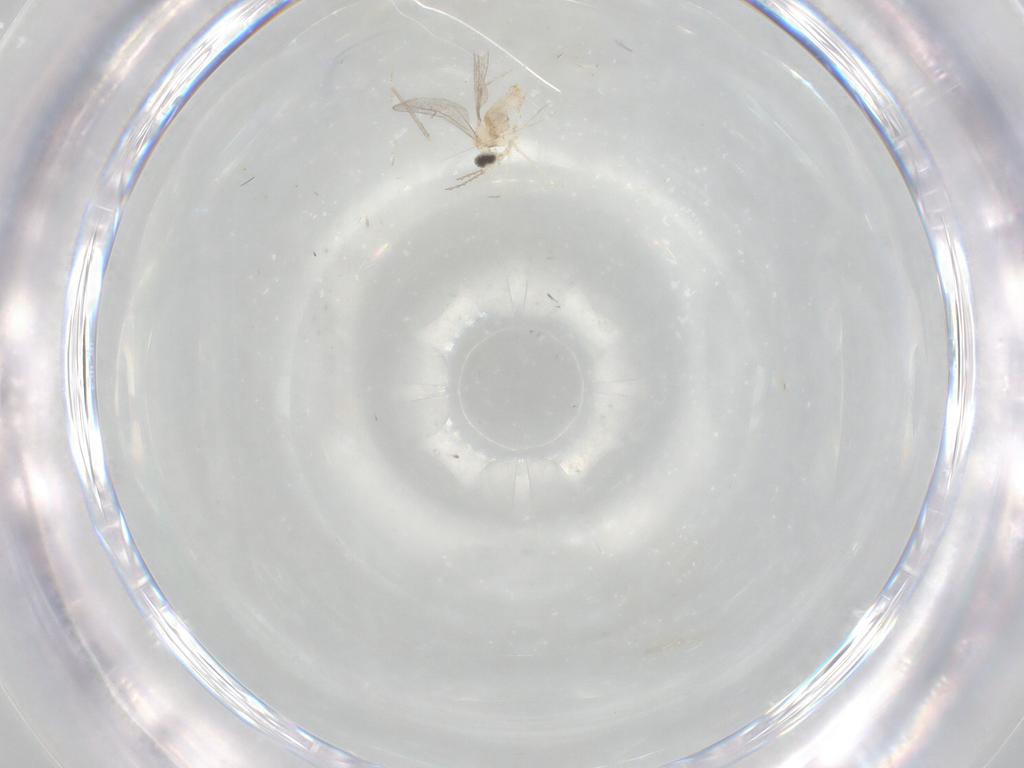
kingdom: Animalia
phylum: Arthropoda
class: Insecta
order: Diptera
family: Cecidomyiidae
